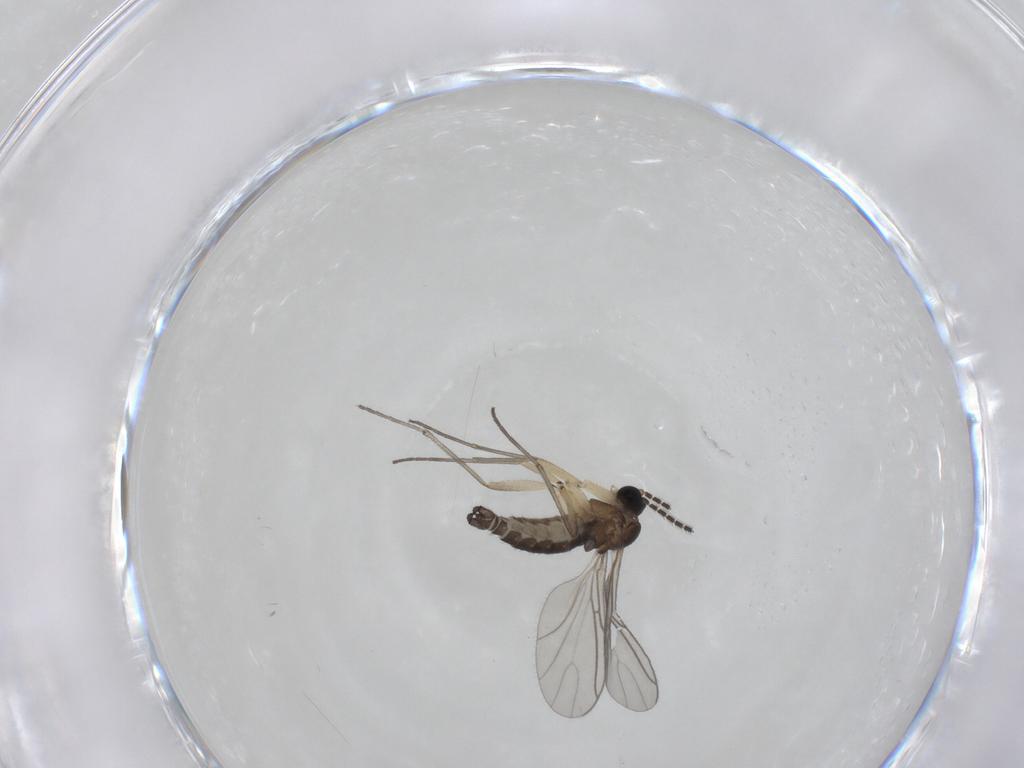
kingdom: Animalia
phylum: Arthropoda
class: Insecta
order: Diptera
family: Sciaridae
